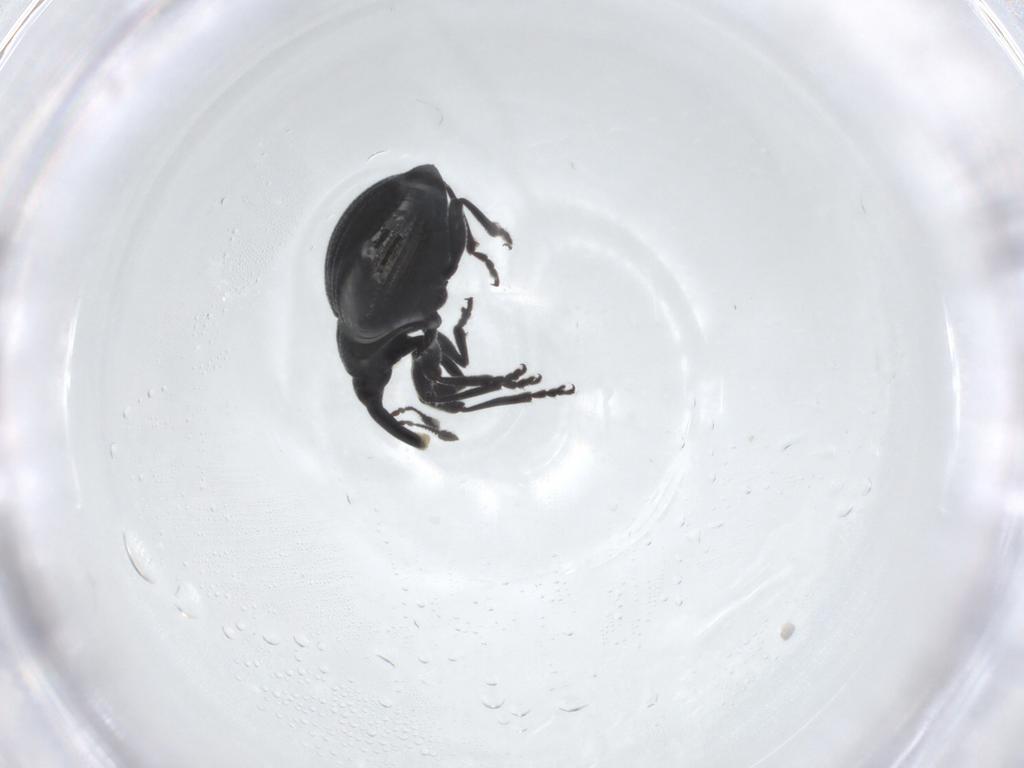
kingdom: Animalia
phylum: Arthropoda
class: Insecta
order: Coleoptera
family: Brentidae
